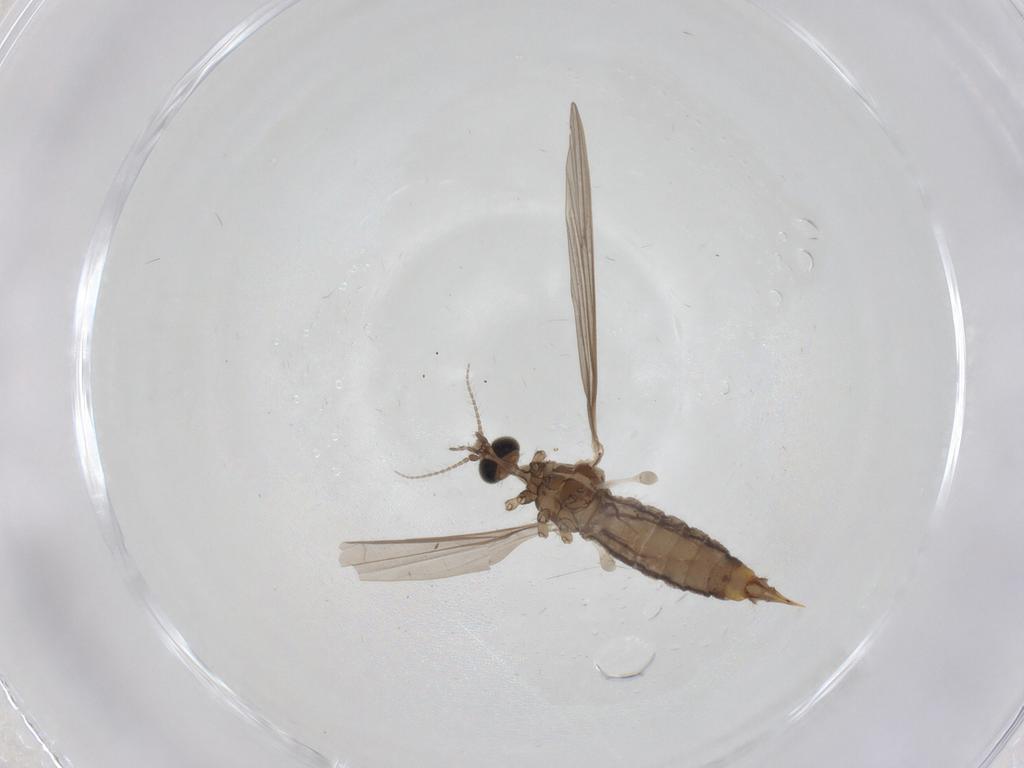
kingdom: Animalia
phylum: Arthropoda
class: Insecta
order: Diptera
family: Limoniidae
